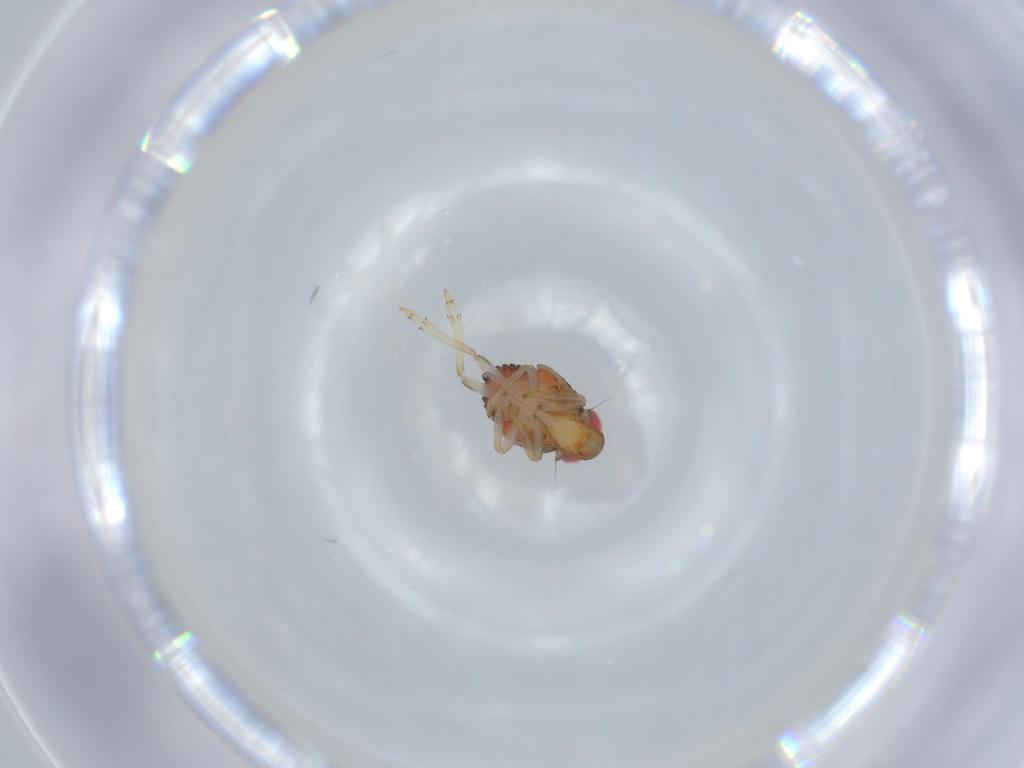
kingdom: Animalia
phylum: Arthropoda
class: Insecta
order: Hemiptera
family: Issidae
